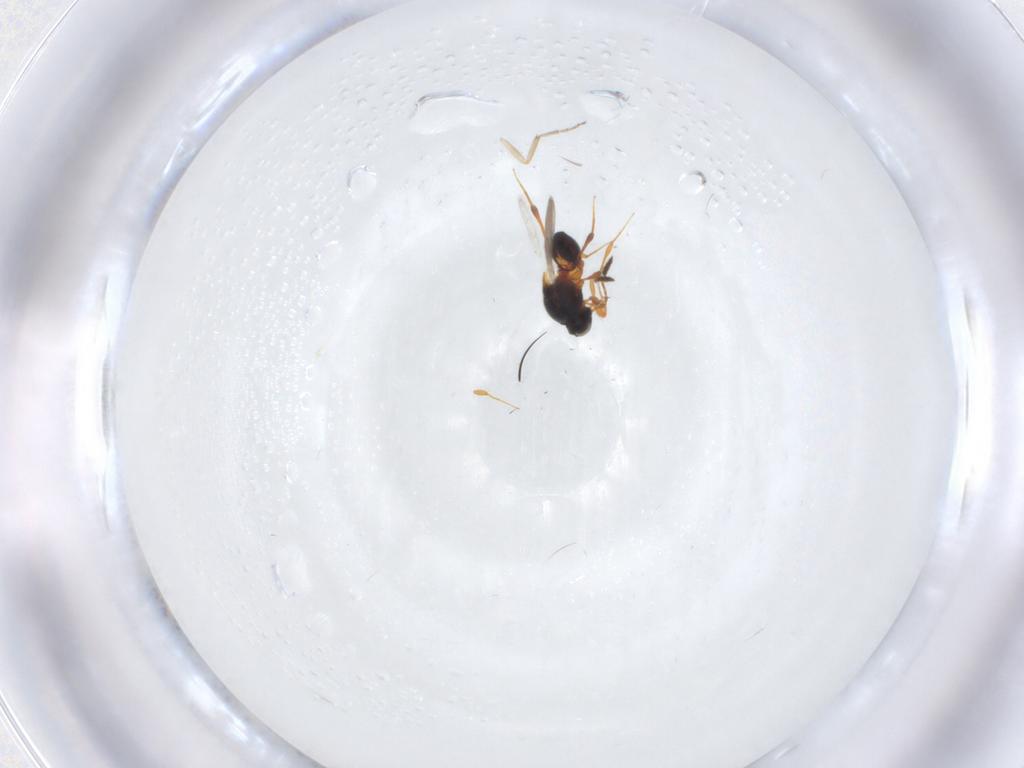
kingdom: Animalia
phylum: Arthropoda
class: Insecta
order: Hymenoptera
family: Platygastridae
